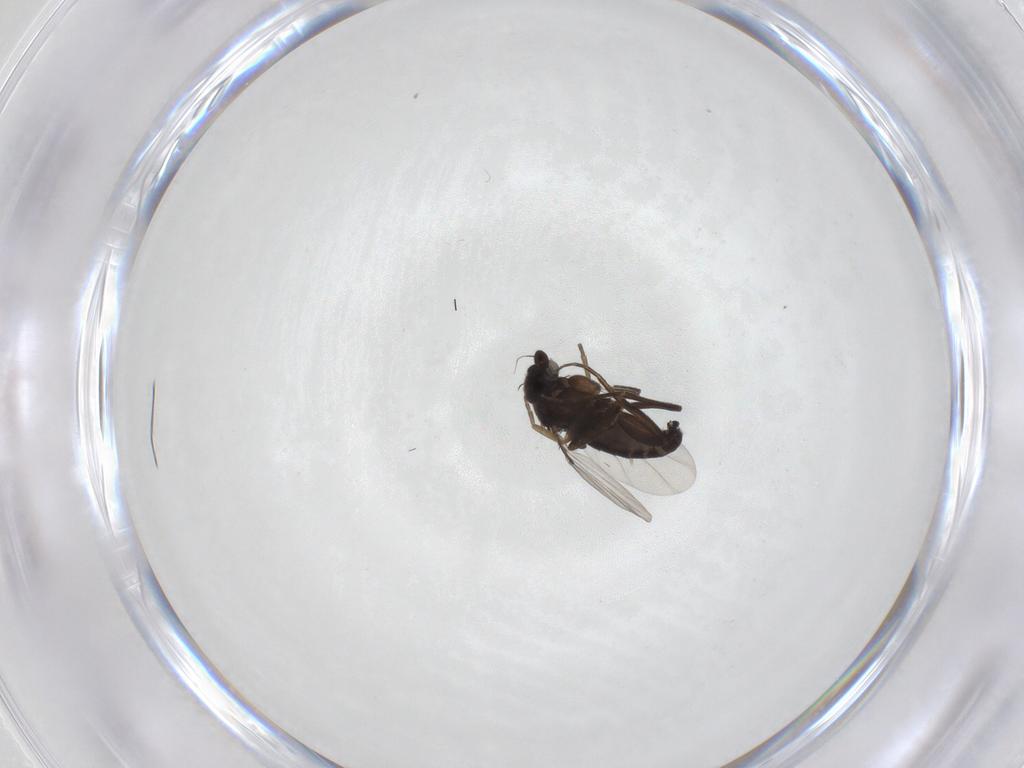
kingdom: Animalia
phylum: Arthropoda
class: Insecta
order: Diptera
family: Cecidomyiidae
